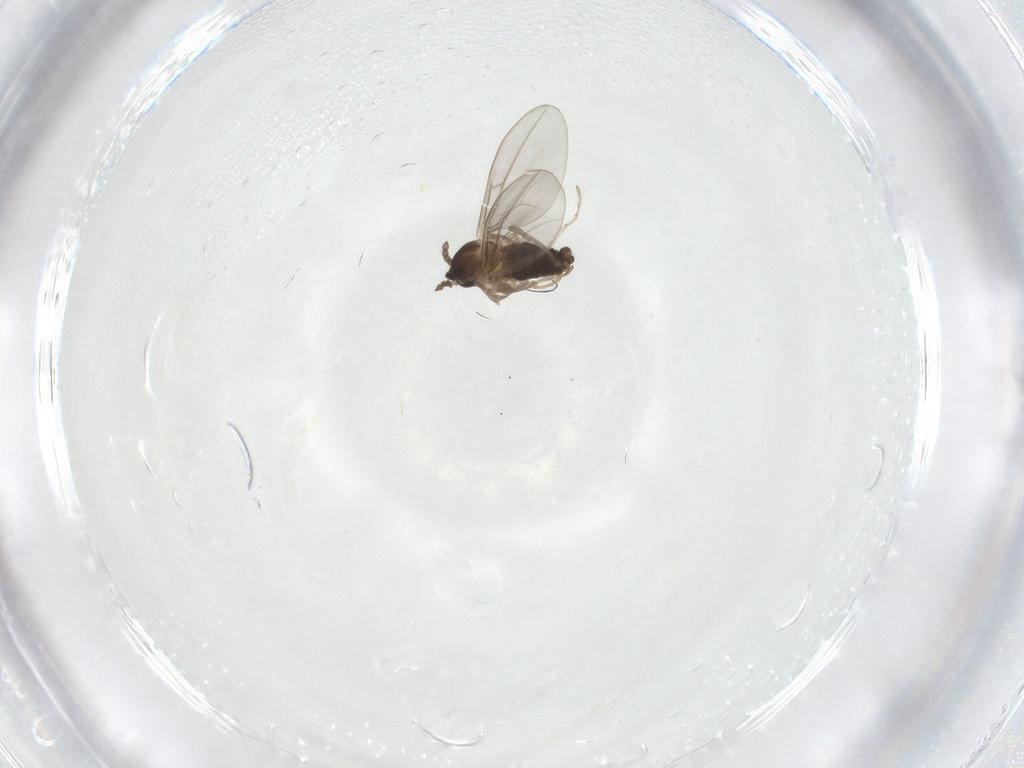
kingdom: Animalia
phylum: Arthropoda
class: Insecta
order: Diptera
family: Cecidomyiidae
